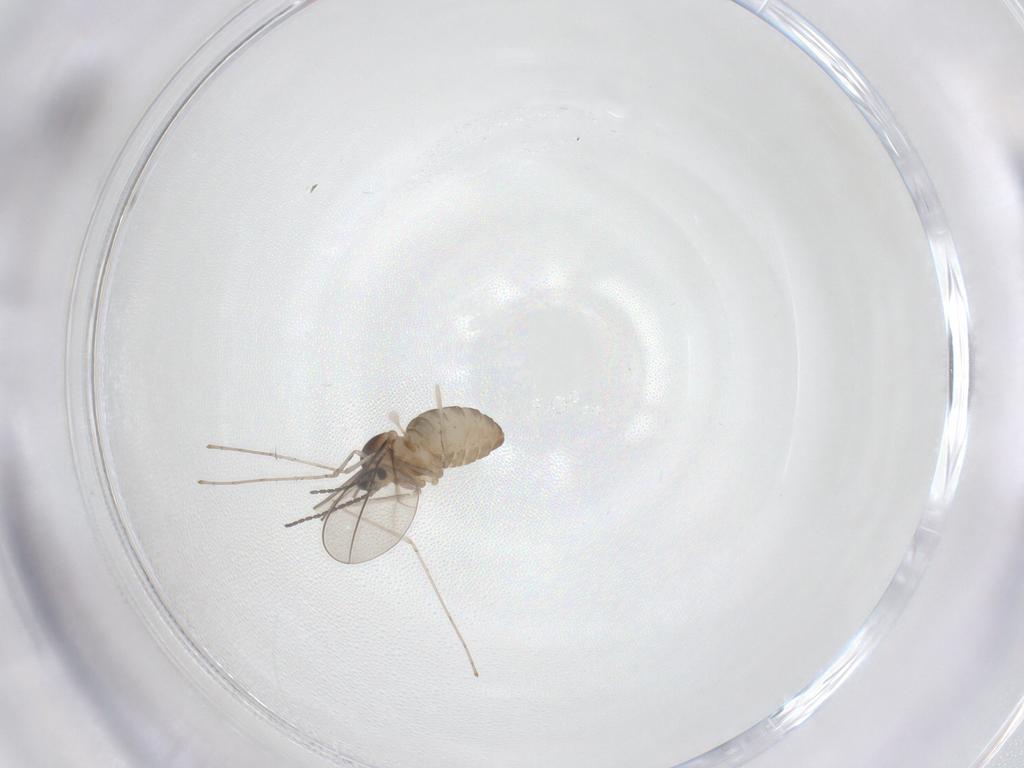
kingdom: Animalia
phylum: Arthropoda
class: Insecta
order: Diptera
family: Cecidomyiidae
